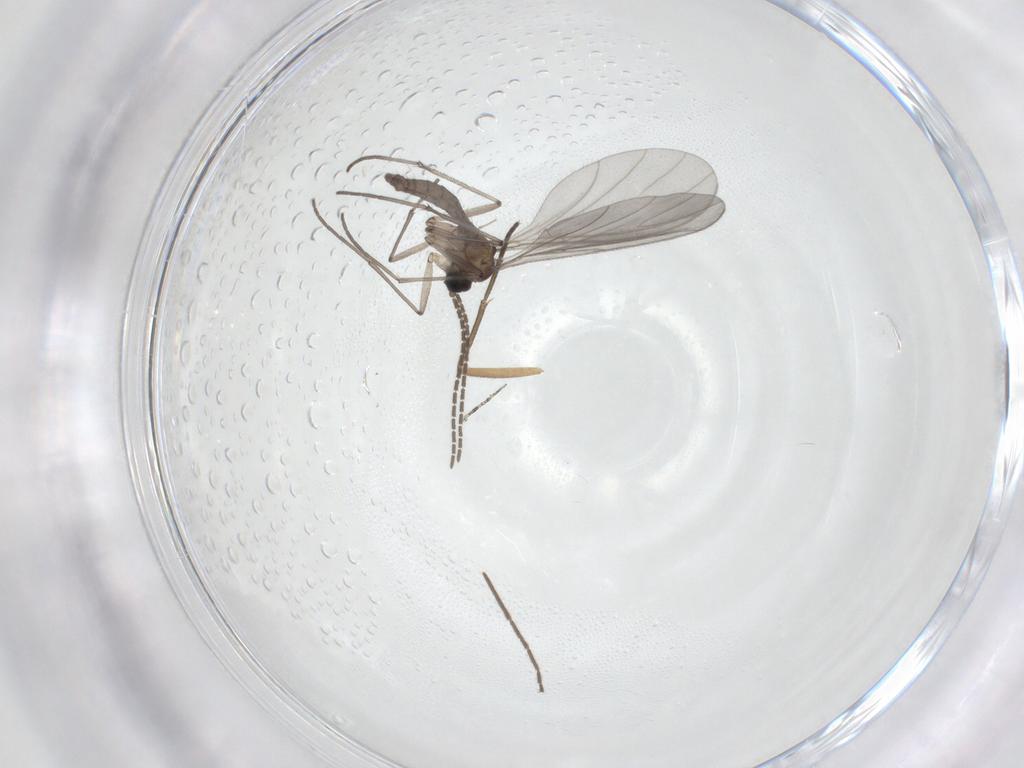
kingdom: Animalia
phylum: Arthropoda
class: Insecta
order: Diptera
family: Sciaridae
